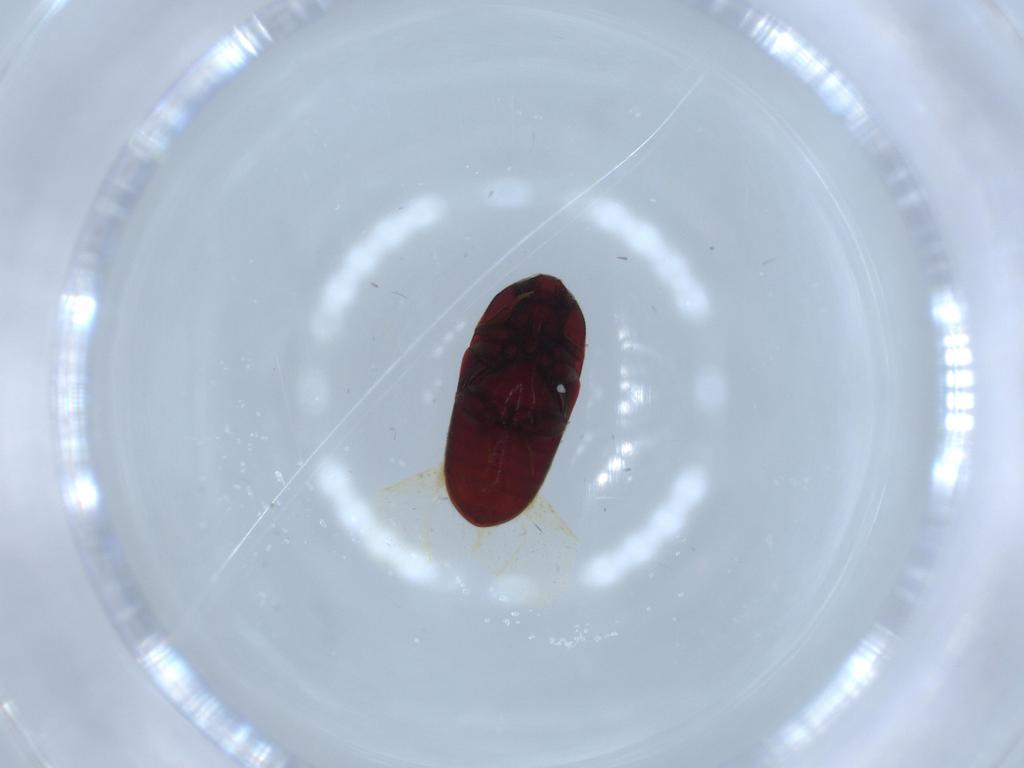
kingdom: Animalia
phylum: Arthropoda
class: Insecta
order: Coleoptera
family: Throscidae
